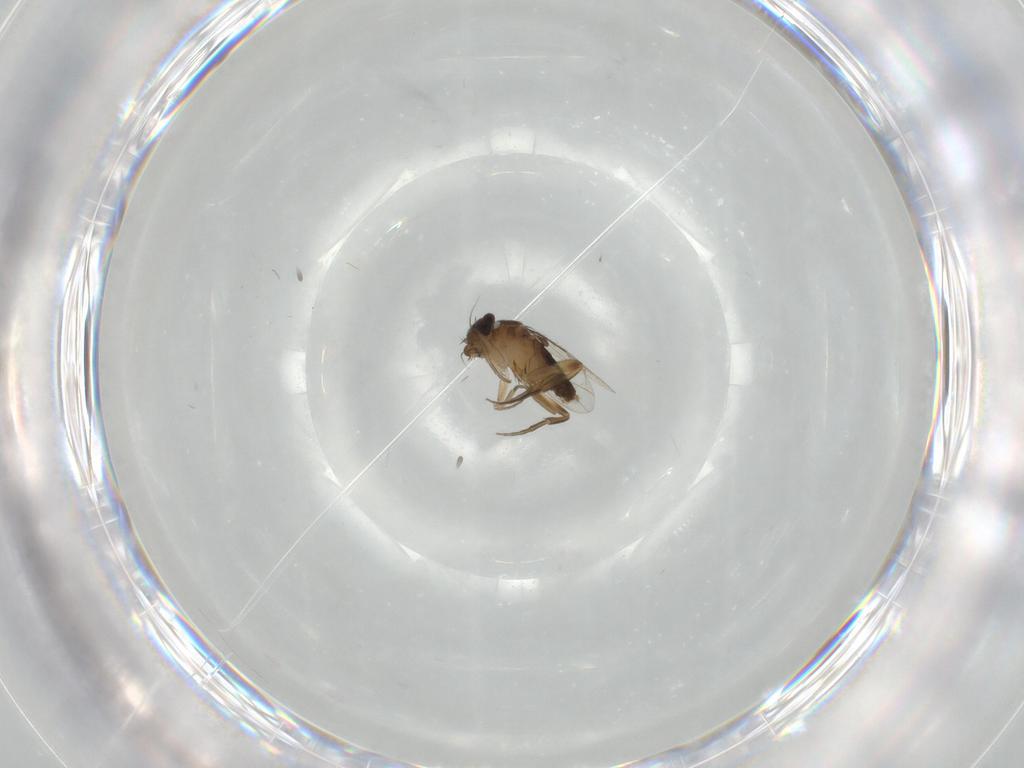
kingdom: Animalia
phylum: Arthropoda
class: Insecta
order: Diptera
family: Phoridae
